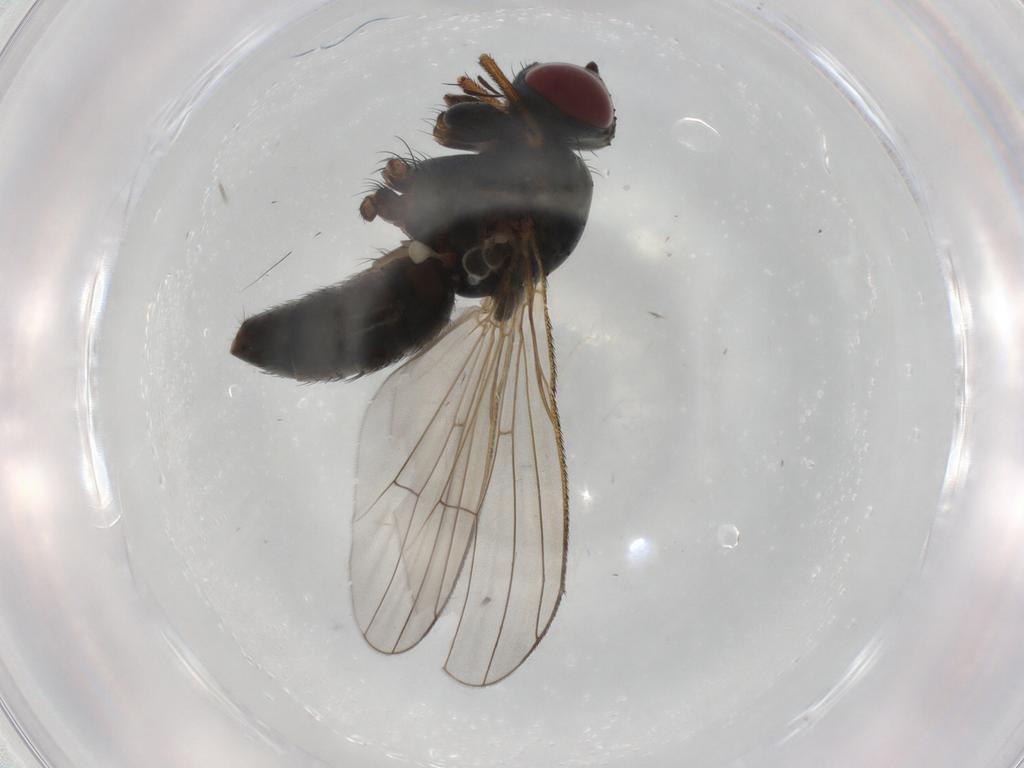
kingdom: Animalia
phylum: Arthropoda
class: Insecta
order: Diptera
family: Muscidae
